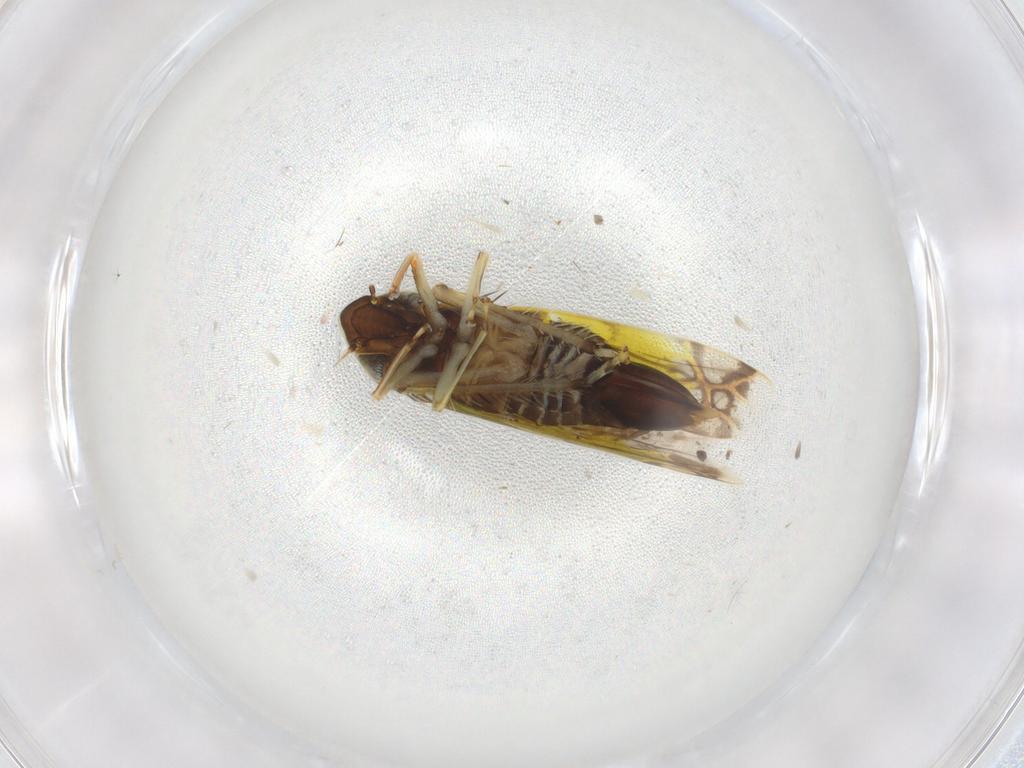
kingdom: Animalia
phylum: Arthropoda
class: Insecta
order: Hemiptera
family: Cicadellidae
